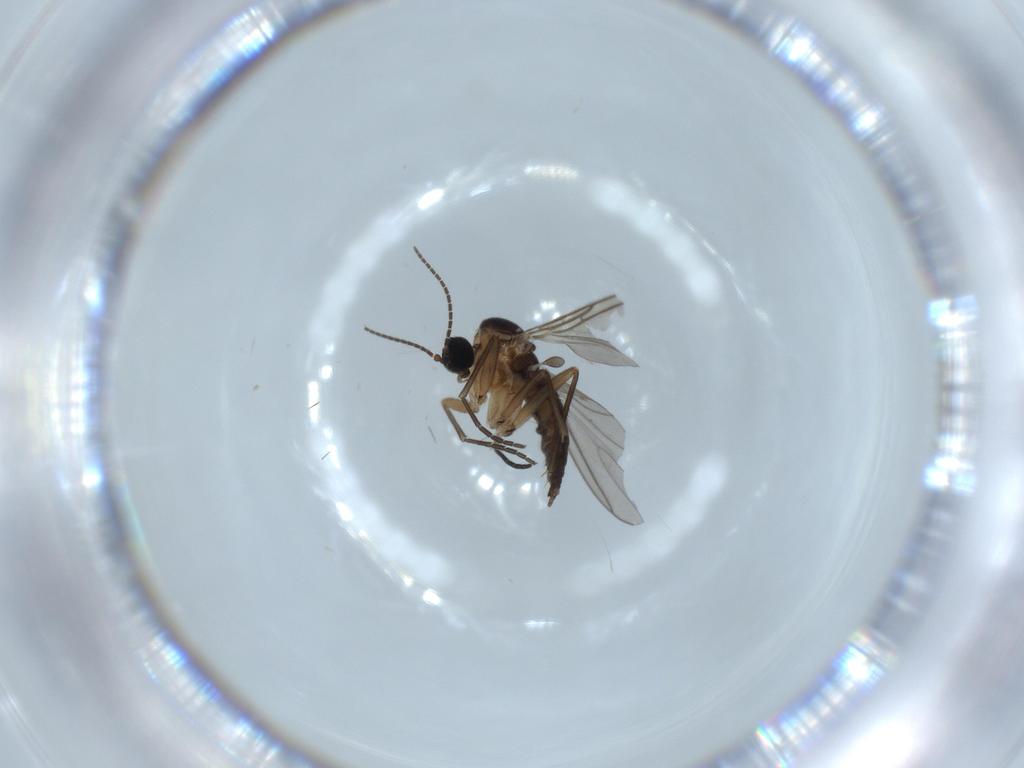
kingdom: Animalia
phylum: Arthropoda
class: Insecta
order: Diptera
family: Sciaridae
